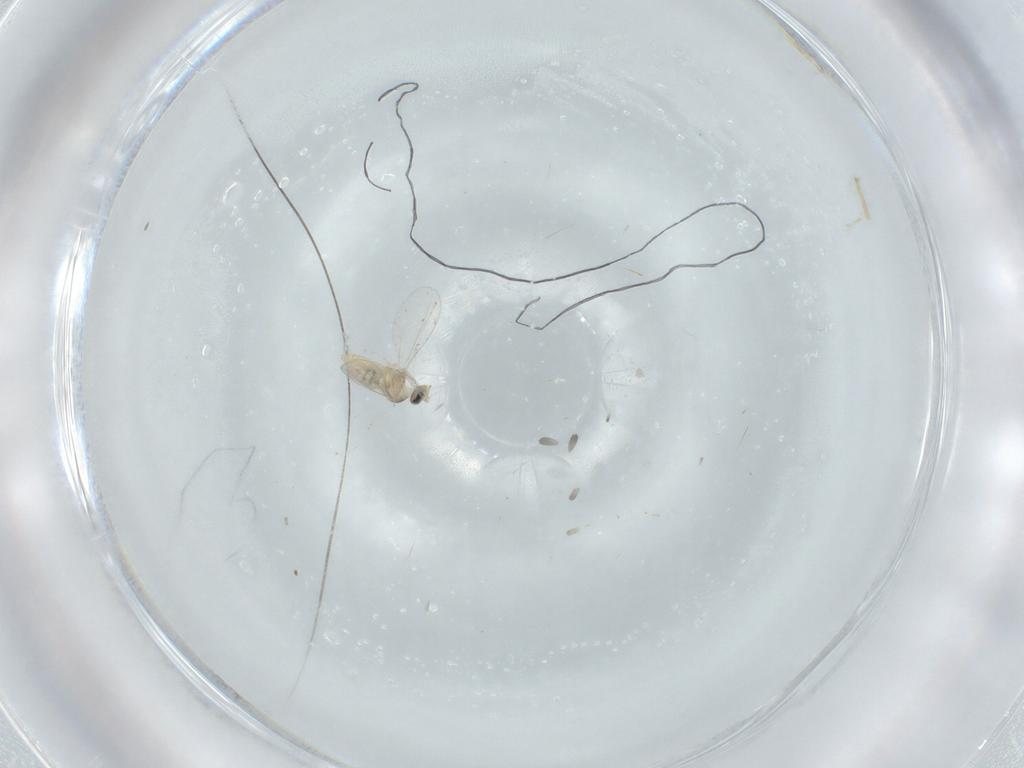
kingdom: Animalia
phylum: Arthropoda
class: Insecta
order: Diptera
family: Cecidomyiidae
